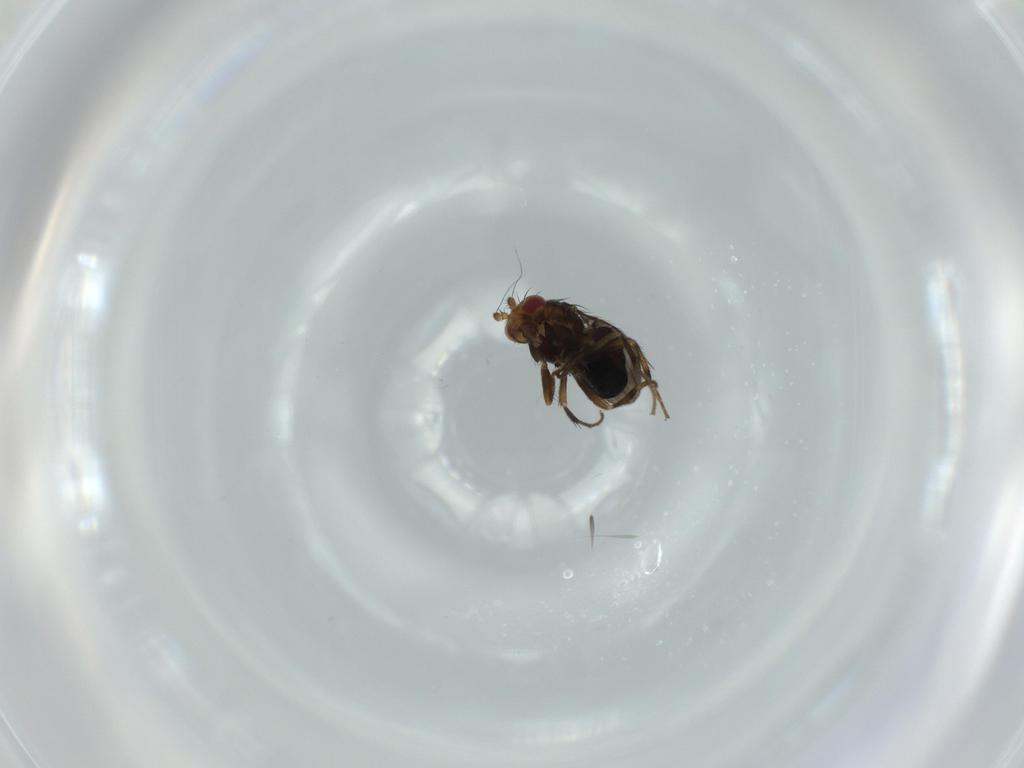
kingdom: Animalia
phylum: Arthropoda
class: Insecta
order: Diptera
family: Cecidomyiidae
